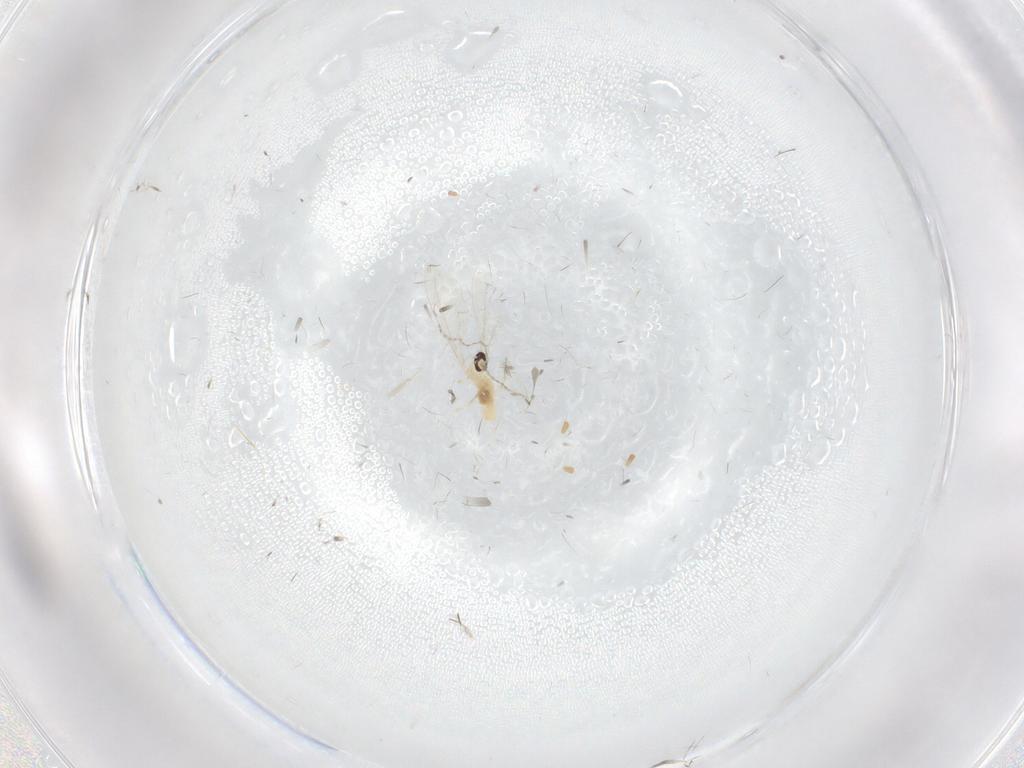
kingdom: Animalia
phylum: Arthropoda
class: Insecta
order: Diptera
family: Cecidomyiidae
